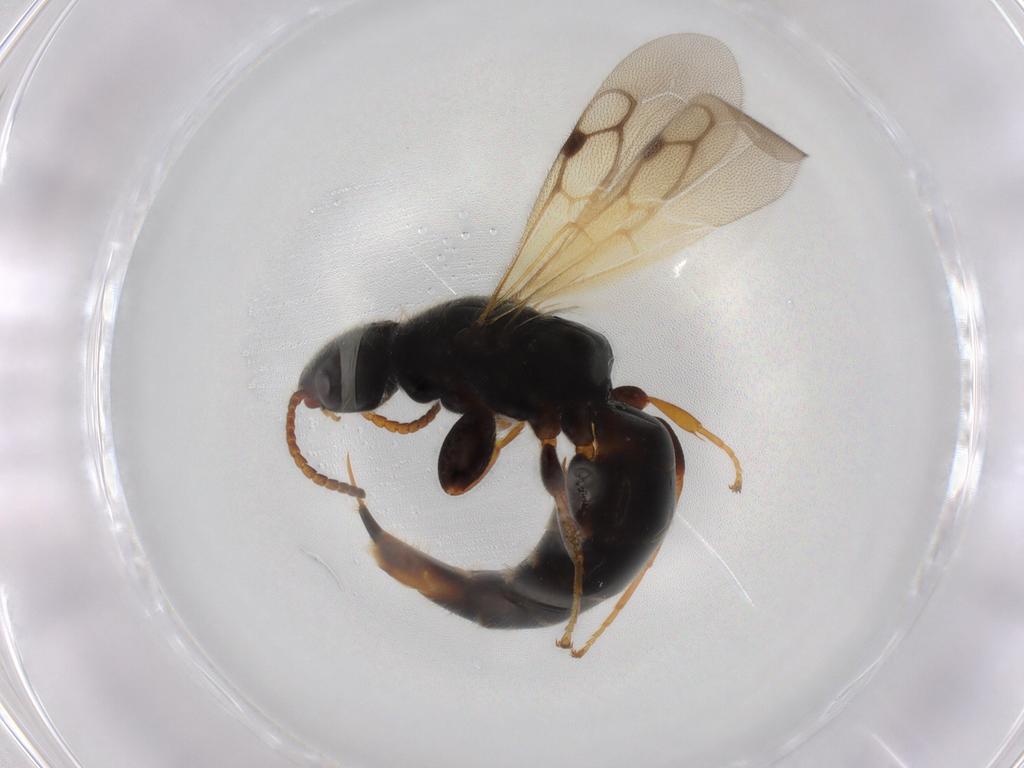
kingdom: Animalia
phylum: Arthropoda
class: Insecta
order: Hymenoptera
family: Bethylidae
